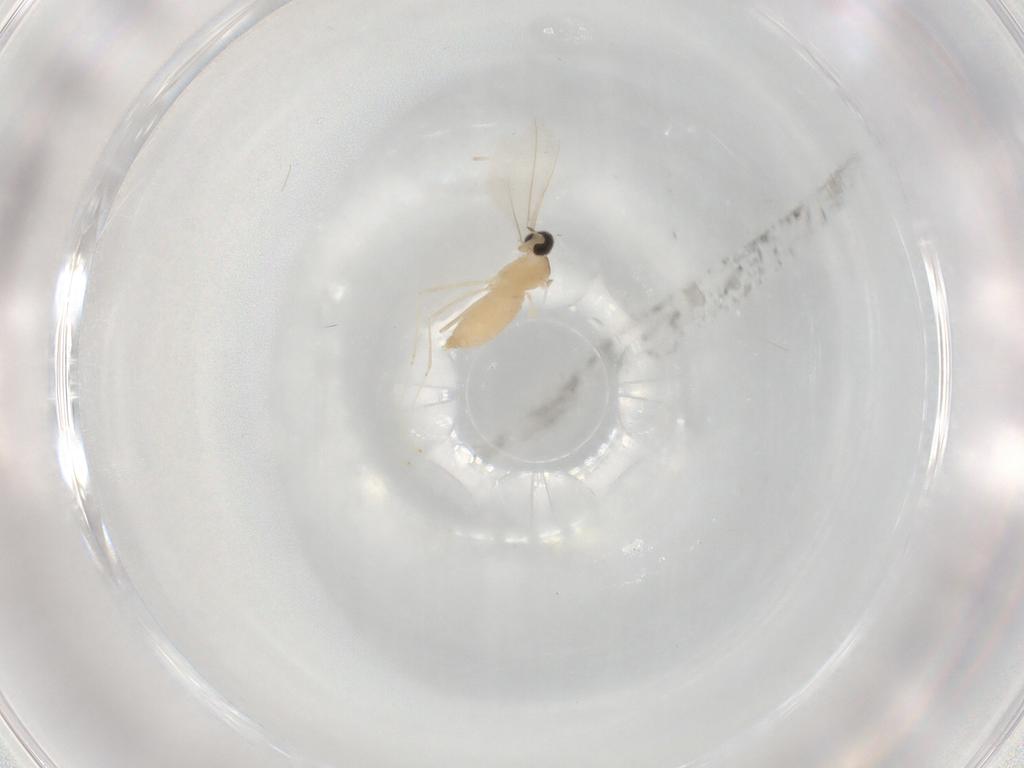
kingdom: Animalia
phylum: Arthropoda
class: Insecta
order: Diptera
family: Cecidomyiidae
